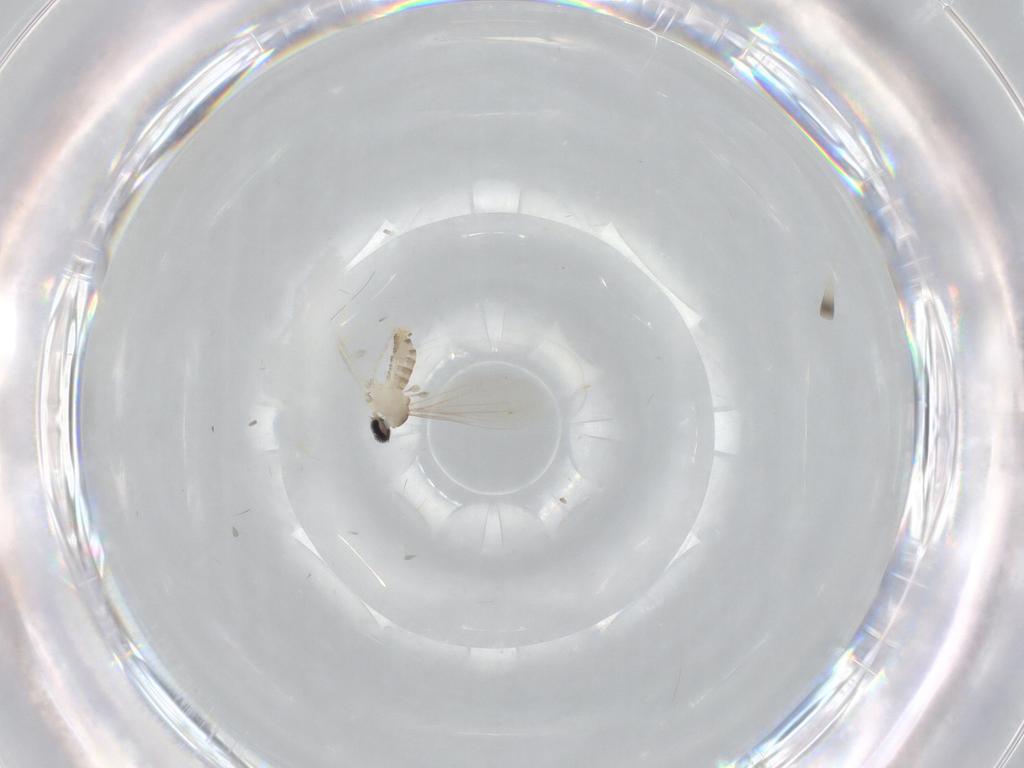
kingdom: Animalia
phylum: Arthropoda
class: Insecta
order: Diptera
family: Cecidomyiidae
